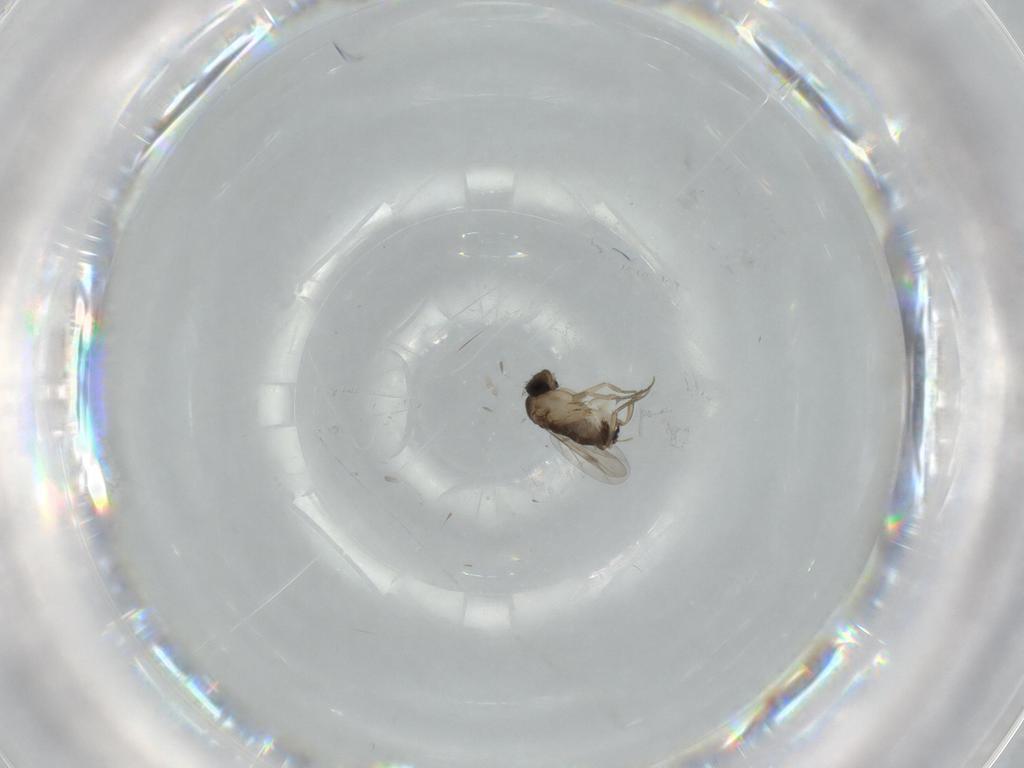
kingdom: Animalia
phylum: Arthropoda
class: Insecta
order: Diptera
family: Phoridae
